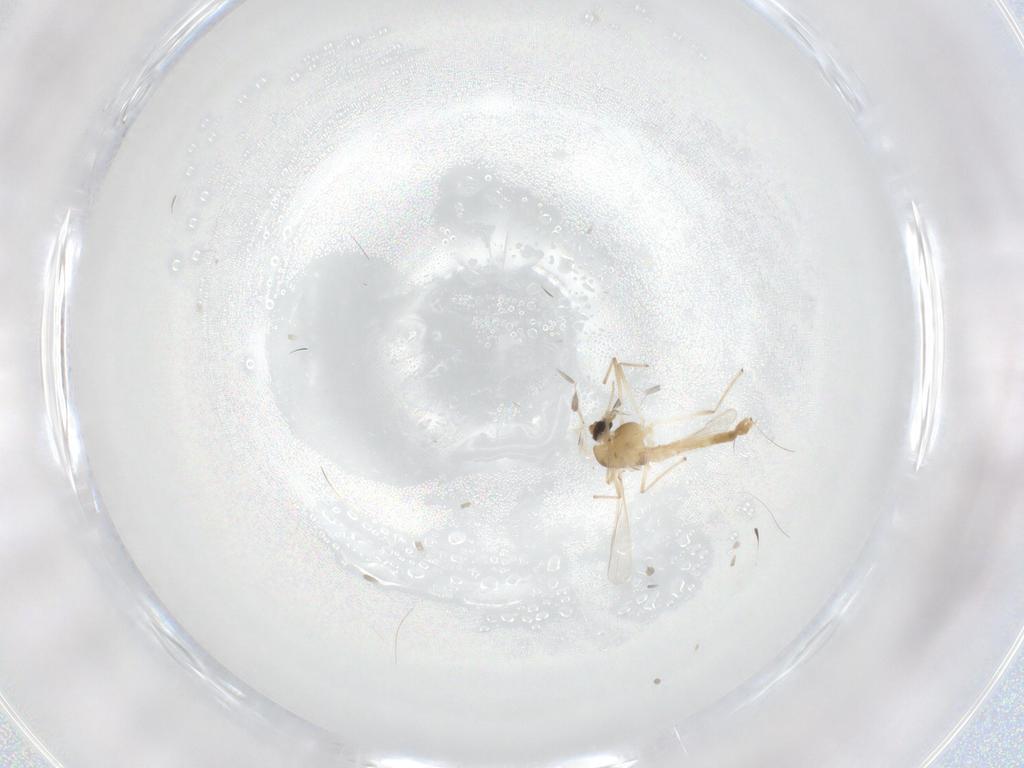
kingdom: Animalia
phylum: Arthropoda
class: Insecta
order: Diptera
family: Chironomidae
